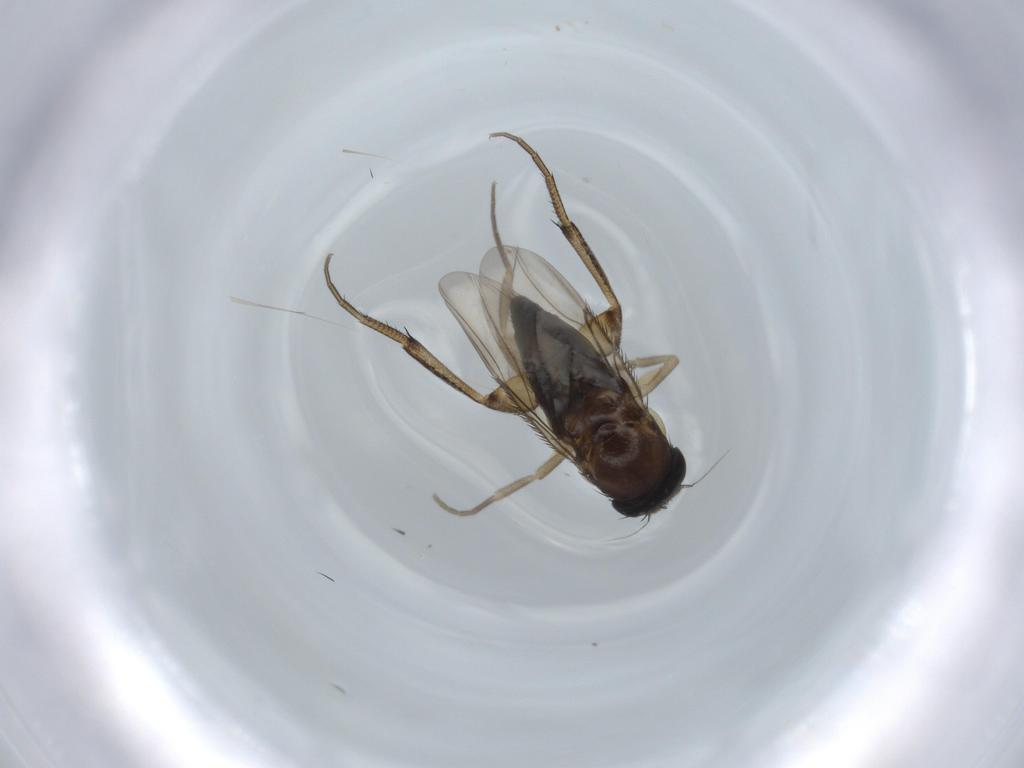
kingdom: Animalia
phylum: Arthropoda
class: Insecta
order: Diptera
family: Phoridae
